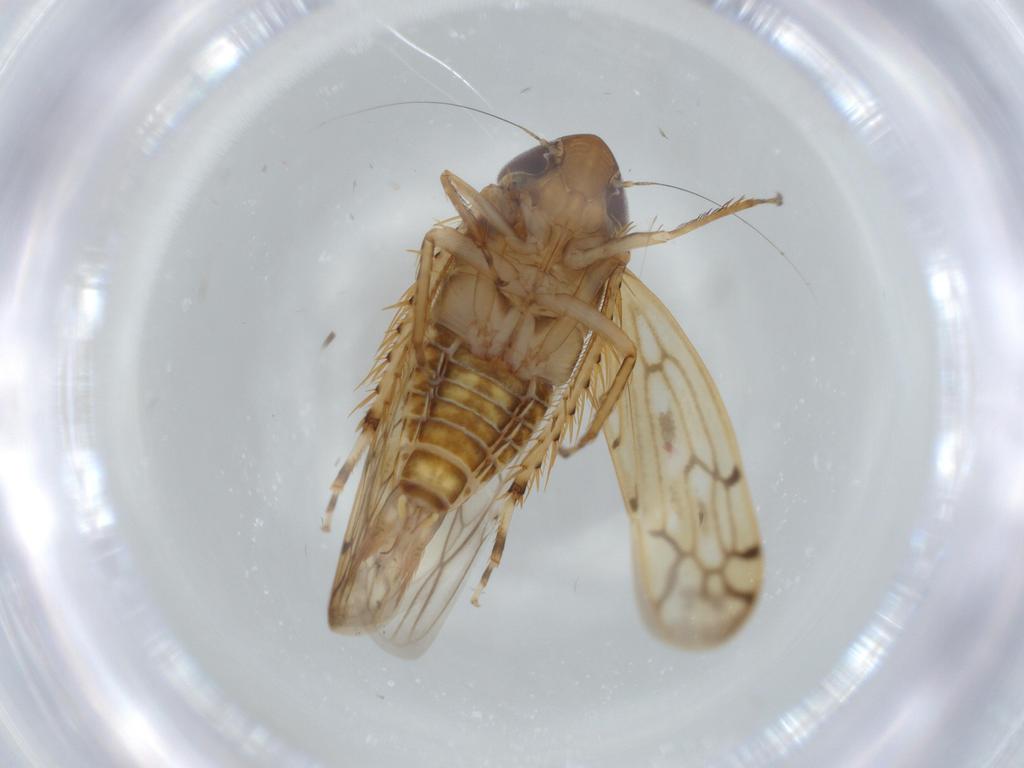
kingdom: Animalia
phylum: Arthropoda
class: Insecta
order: Hemiptera
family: Cicadellidae
